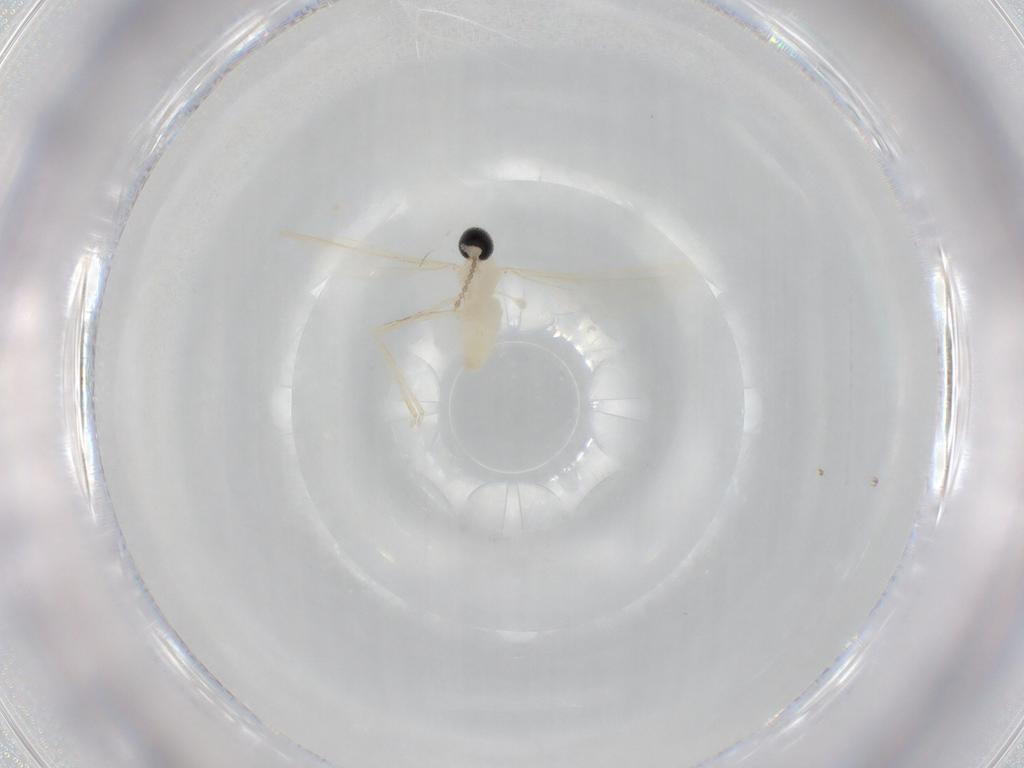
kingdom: Animalia
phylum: Arthropoda
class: Insecta
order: Diptera
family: Cecidomyiidae
